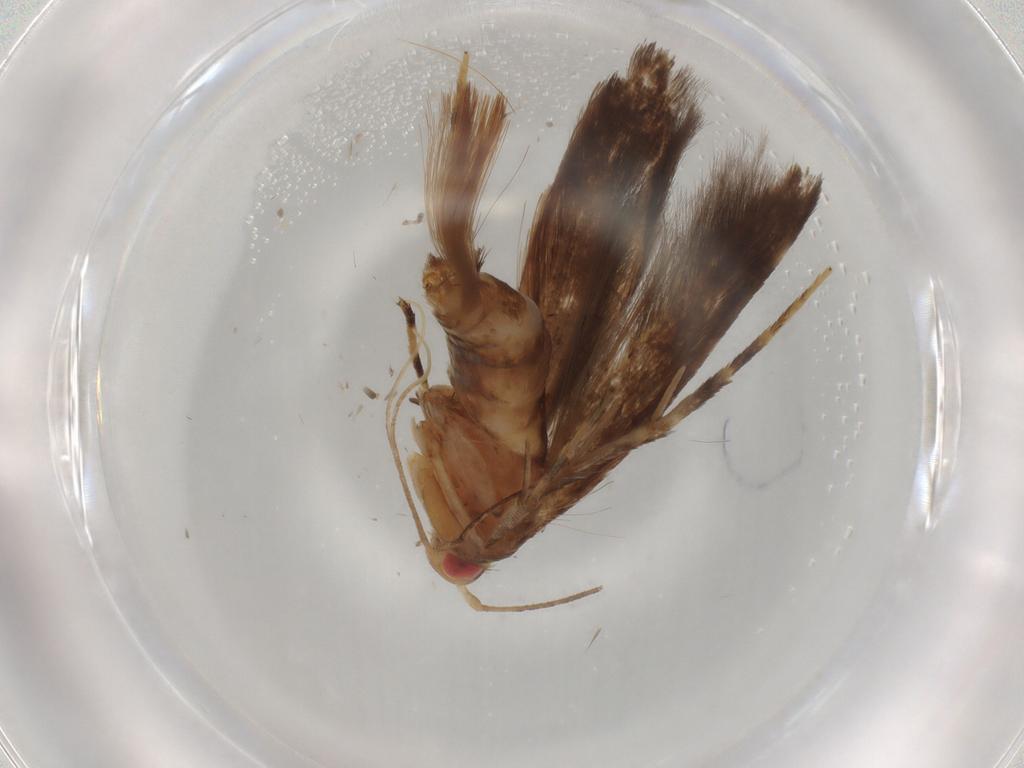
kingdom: Animalia
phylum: Arthropoda
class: Insecta
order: Lepidoptera
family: Cosmopterigidae
